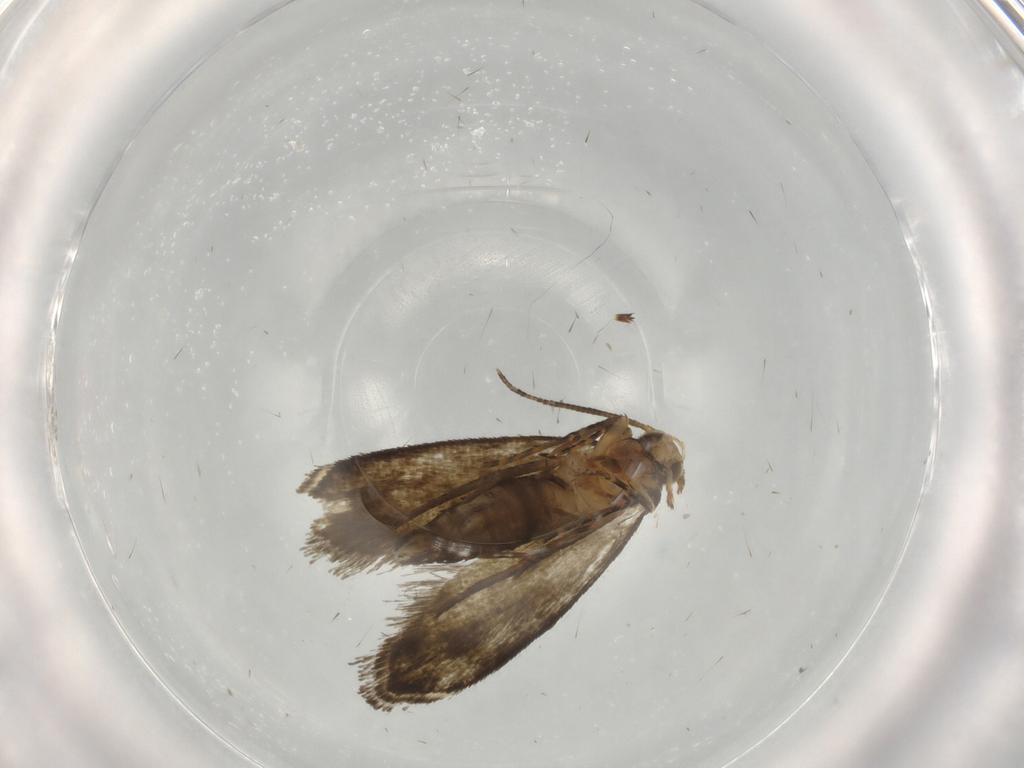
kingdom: Animalia
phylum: Arthropoda
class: Insecta
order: Lepidoptera
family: Crambidae
